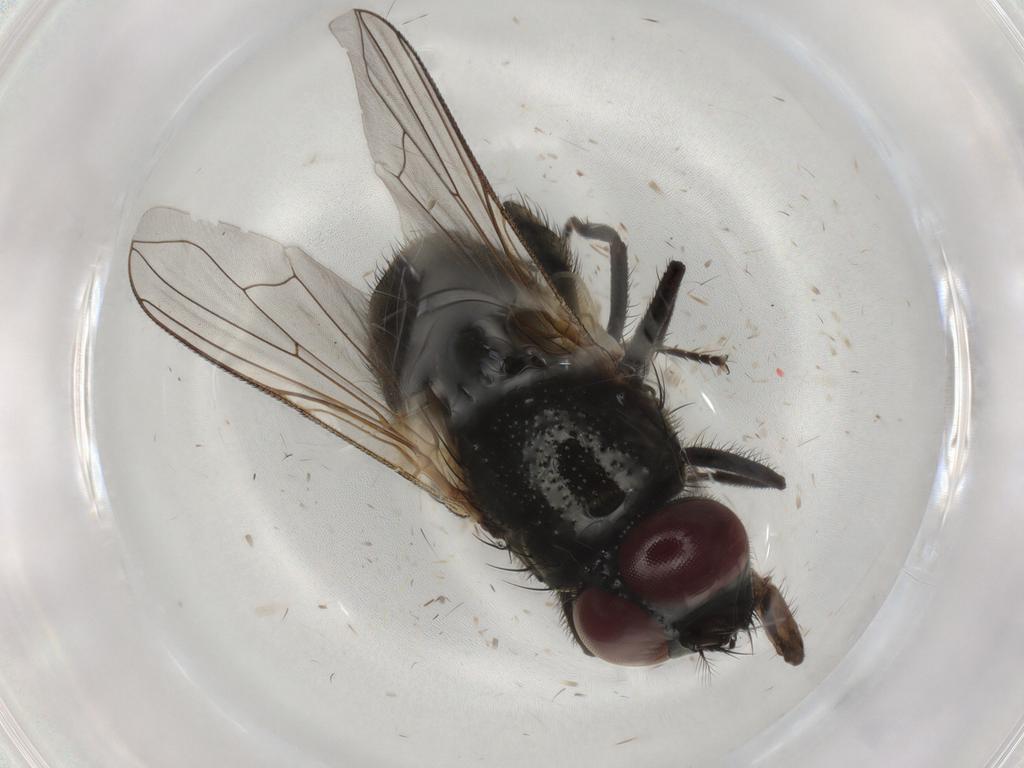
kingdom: Animalia
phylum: Arthropoda
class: Insecta
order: Diptera
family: Muscidae
